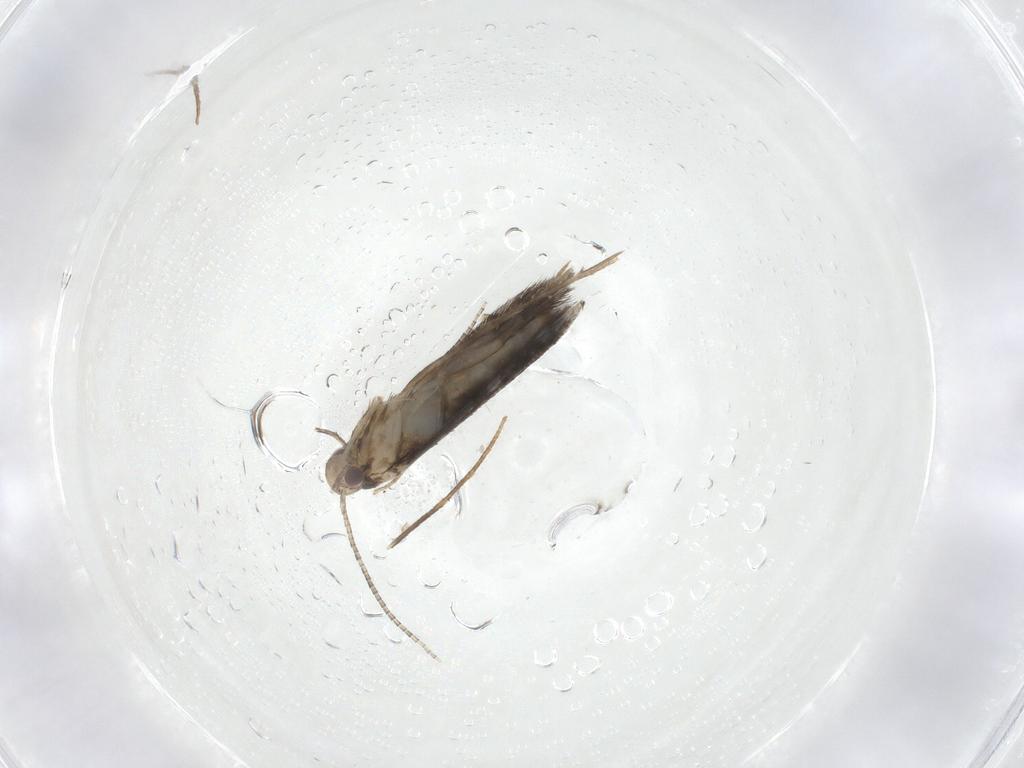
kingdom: Animalia
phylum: Arthropoda
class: Insecta
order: Lepidoptera
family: Gracillariidae
